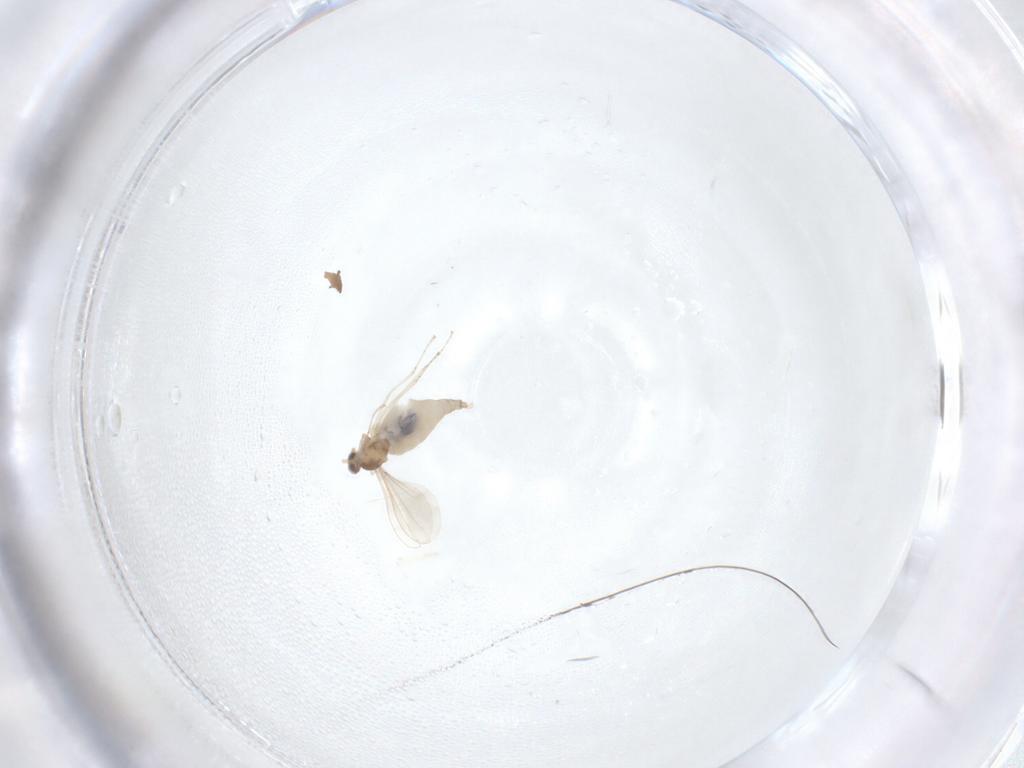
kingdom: Animalia
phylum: Arthropoda
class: Insecta
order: Diptera
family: Cecidomyiidae
